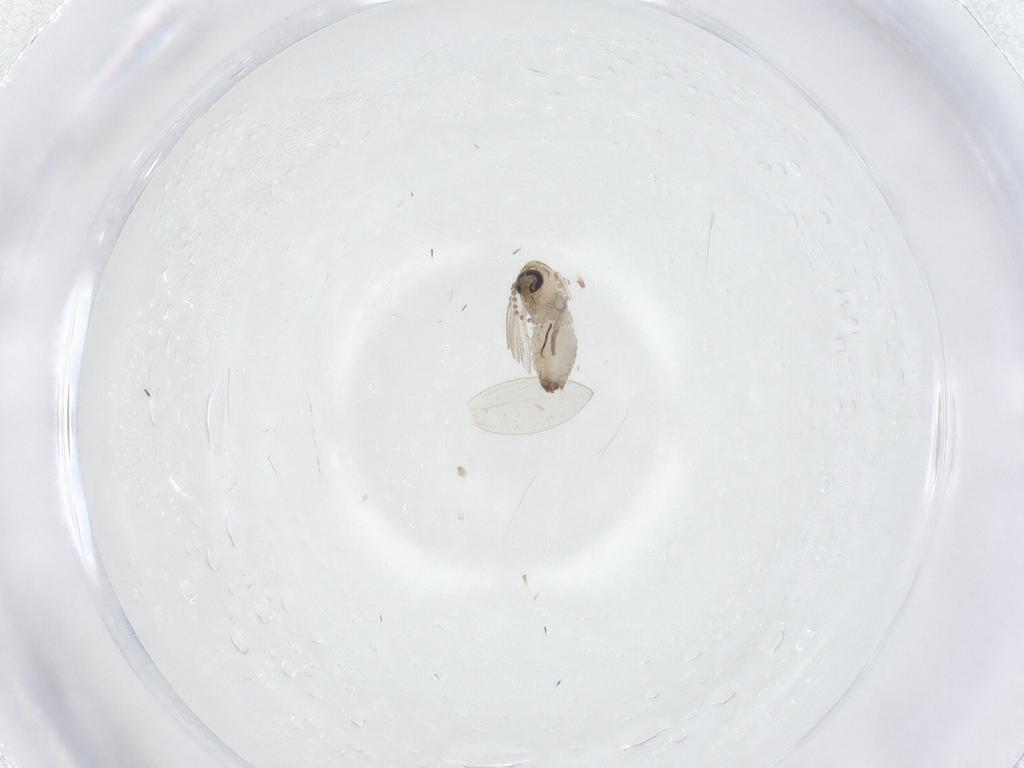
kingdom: Animalia
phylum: Arthropoda
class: Insecta
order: Diptera
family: Psychodidae
